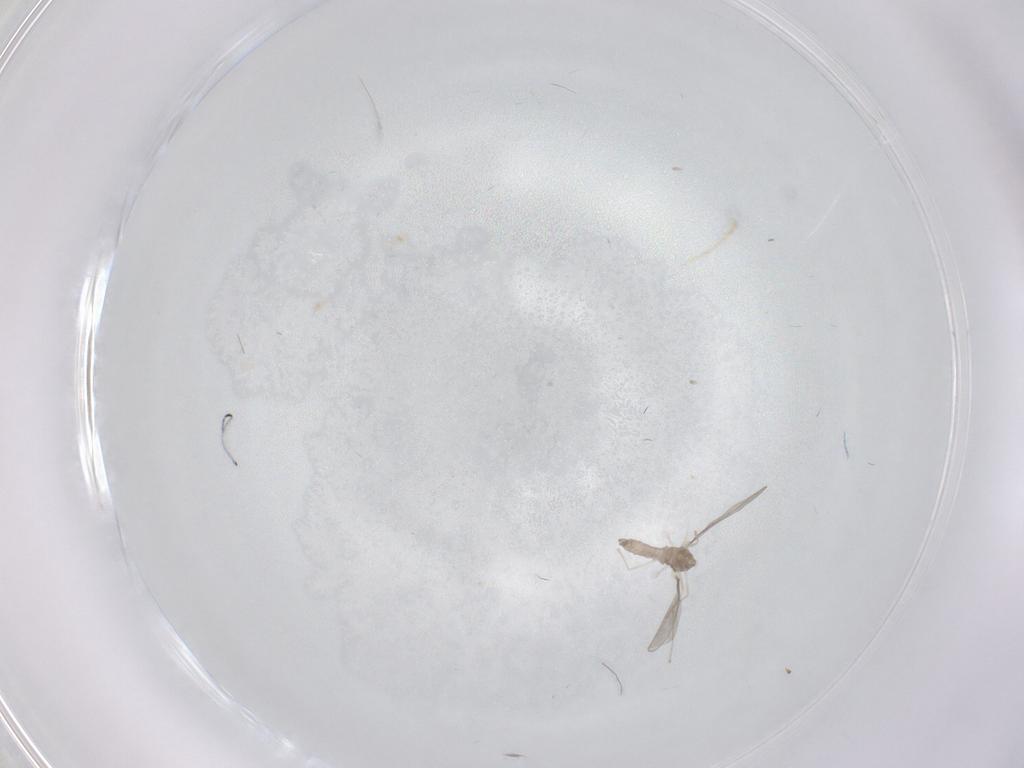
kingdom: Animalia
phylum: Arthropoda
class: Insecta
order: Diptera
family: Cecidomyiidae
